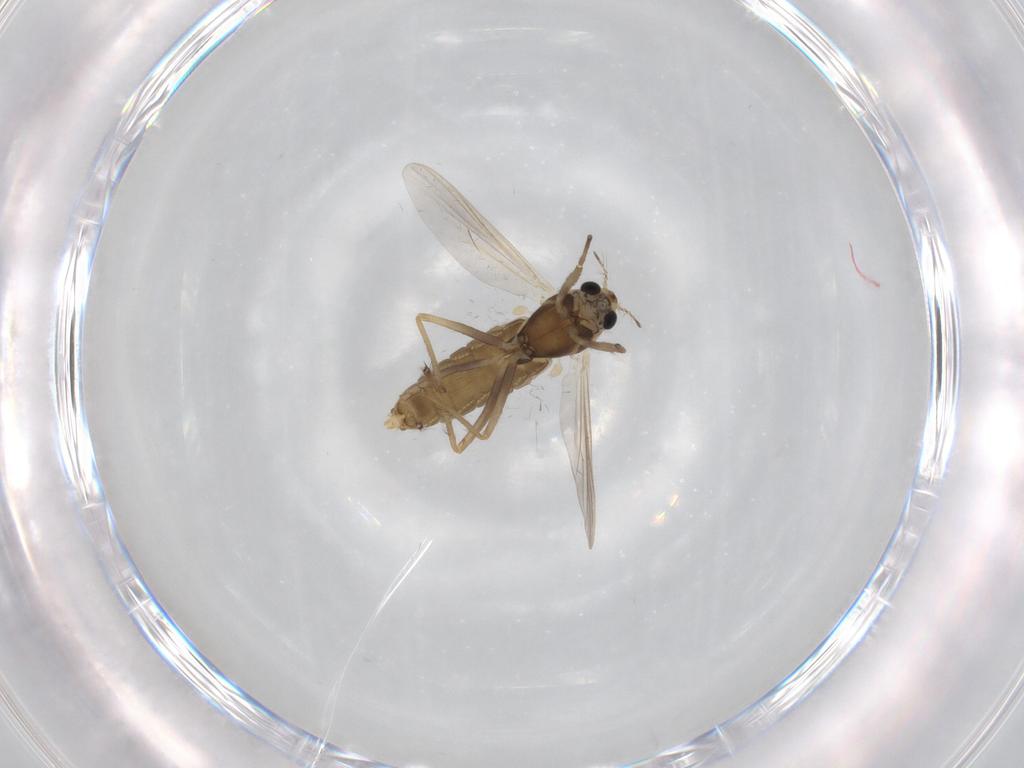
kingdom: Animalia
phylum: Arthropoda
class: Insecta
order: Diptera
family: Chironomidae
